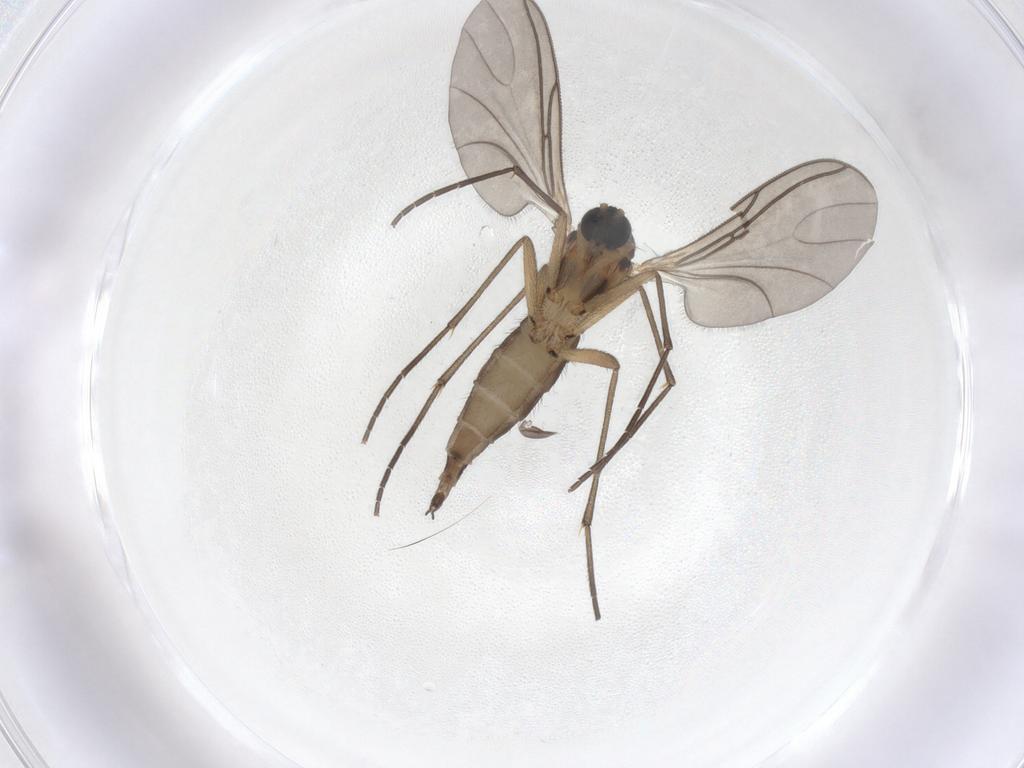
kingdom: Animalia
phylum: Arthropoda
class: Insecta
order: Diptera
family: Sciaridae
